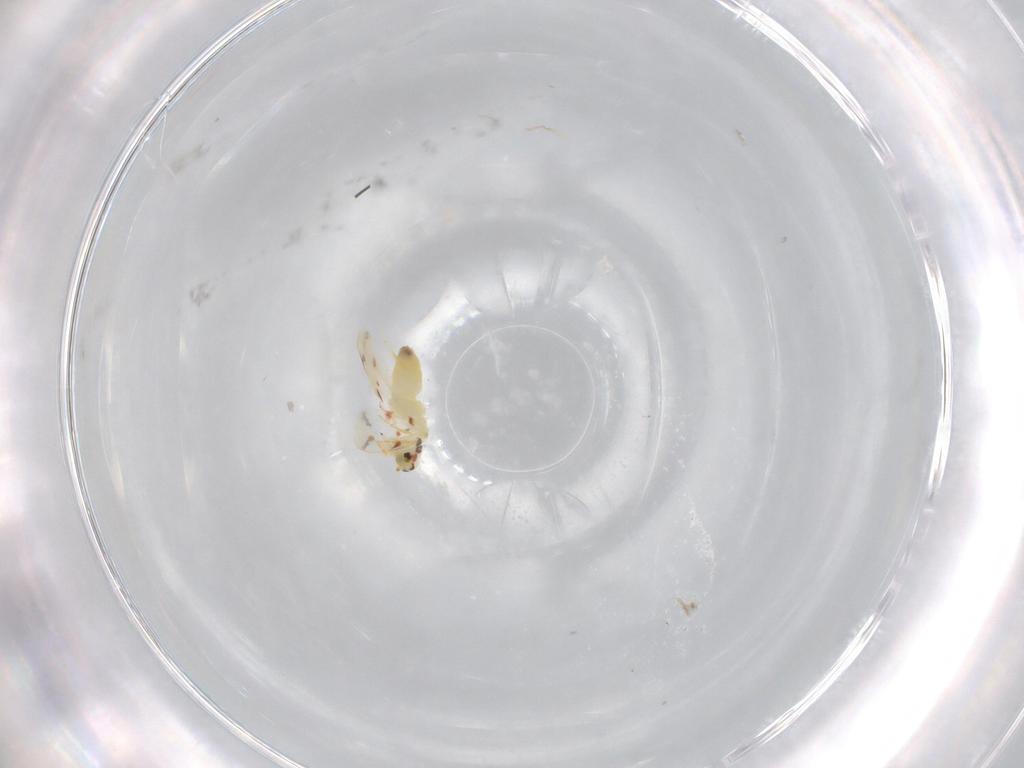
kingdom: Animalia
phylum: Arthropoda
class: Insecta
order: Hemiptera
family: Aleyrodidae
